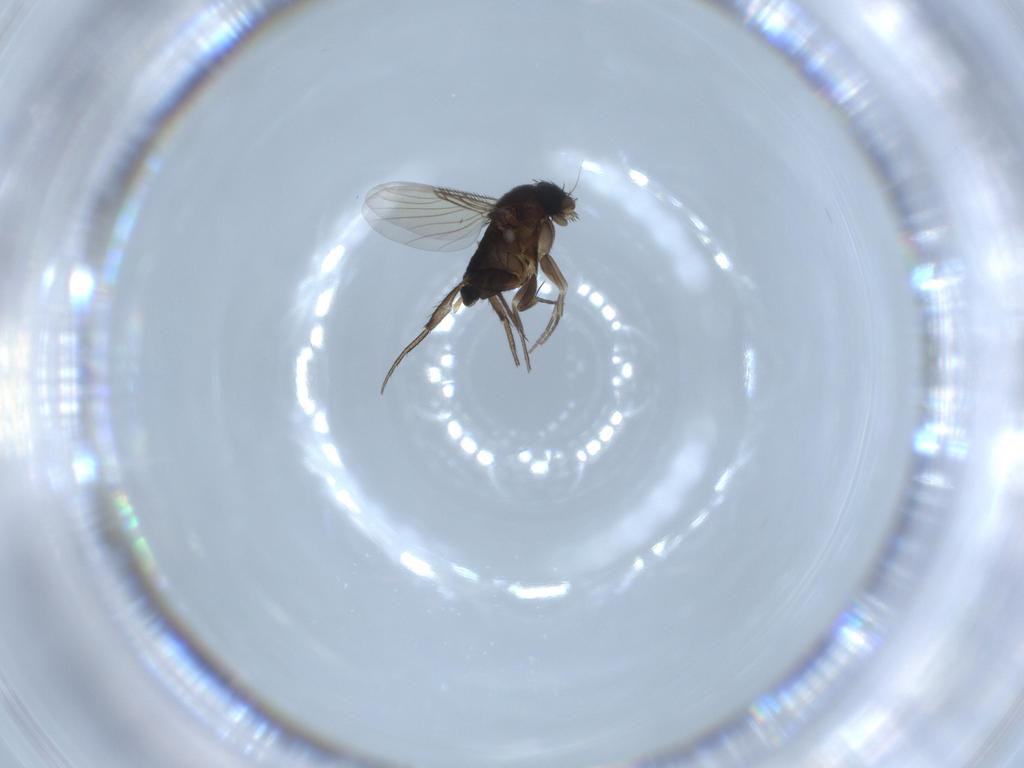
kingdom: Animalia
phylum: Arthropoda
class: Insecta
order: Diptera
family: Phoridae
